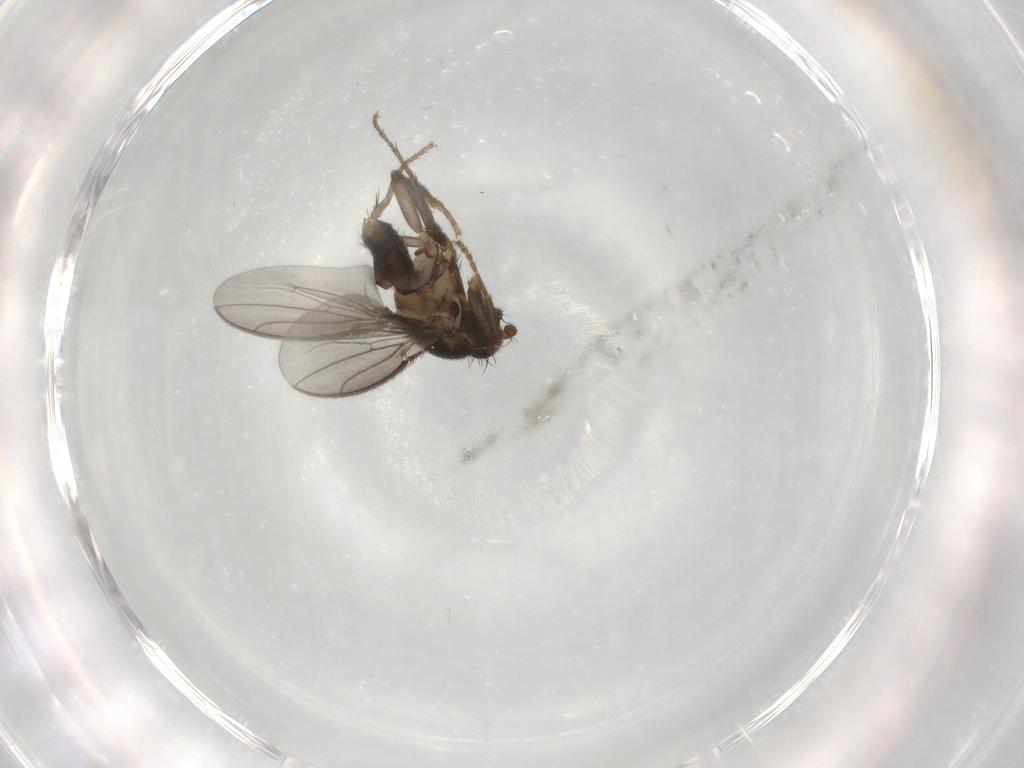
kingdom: Animalia
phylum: Arthropoda
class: Insecta
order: Diptera
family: Sphaeroceridae
